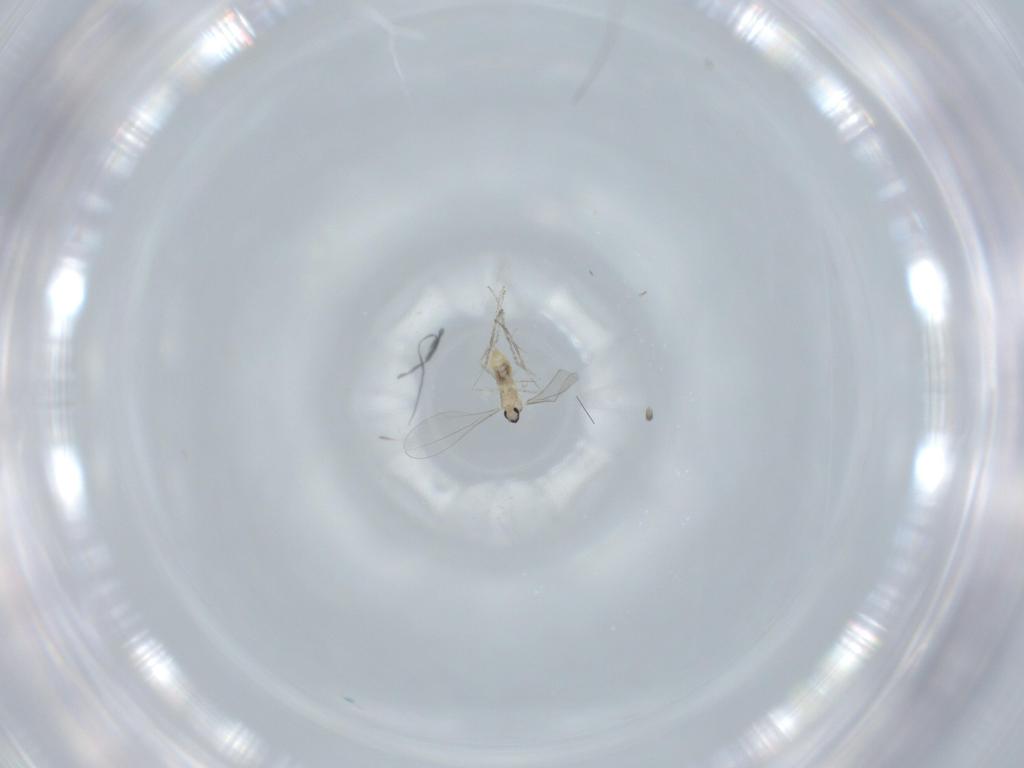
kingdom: Animalia
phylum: Arthropoda
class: Insecta
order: Diptera
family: Cecidomyiidae
